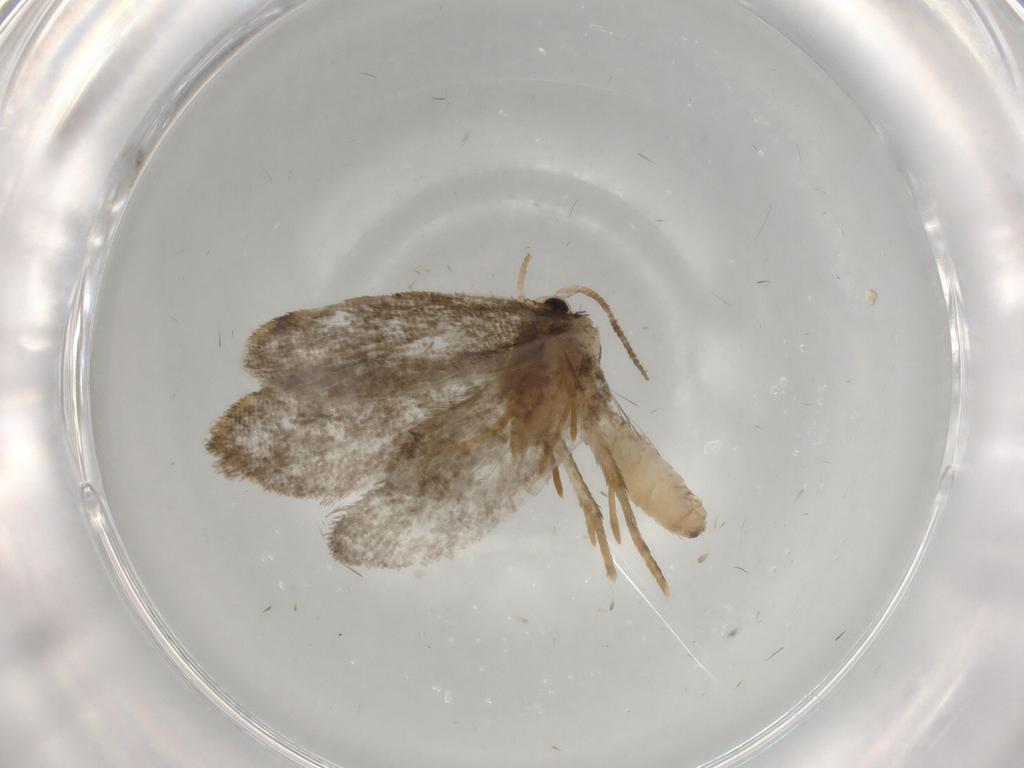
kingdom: Animalia
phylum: Arthropoda
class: Insecta
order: Lepidoptera
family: Psychidae
